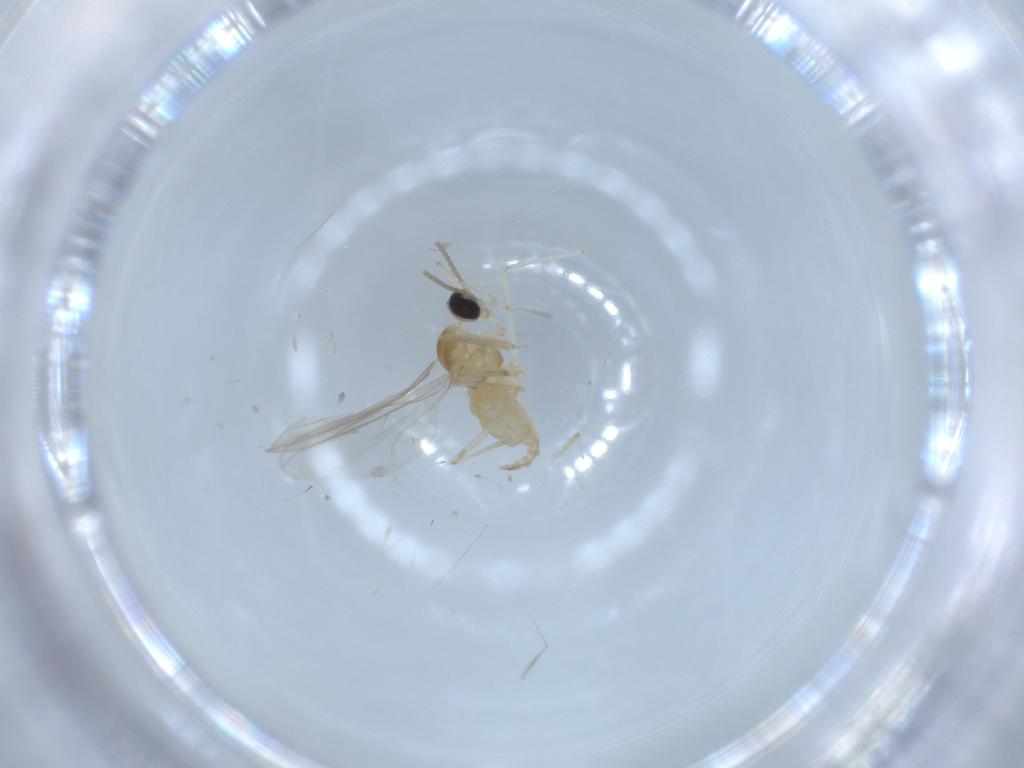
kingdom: Animalia
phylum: Arthropoda
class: Insecta
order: Diptera
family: Cecidomyiidae
